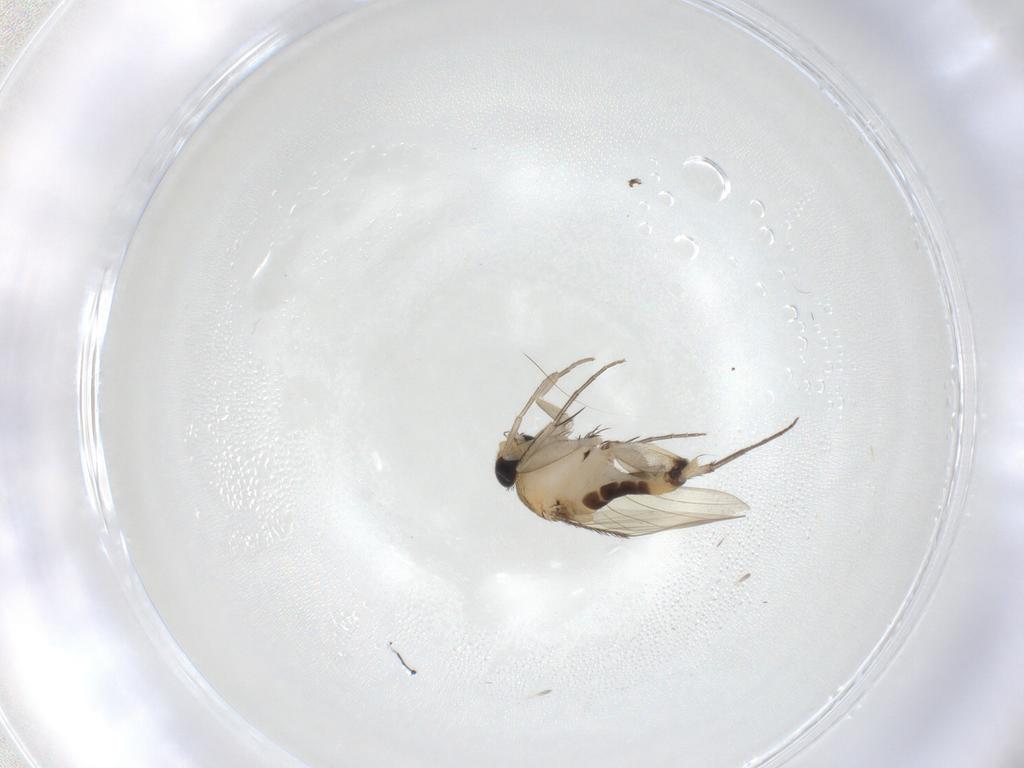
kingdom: Animalia
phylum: Arthropoda
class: Insecta
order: Diptera
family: Phoridae
